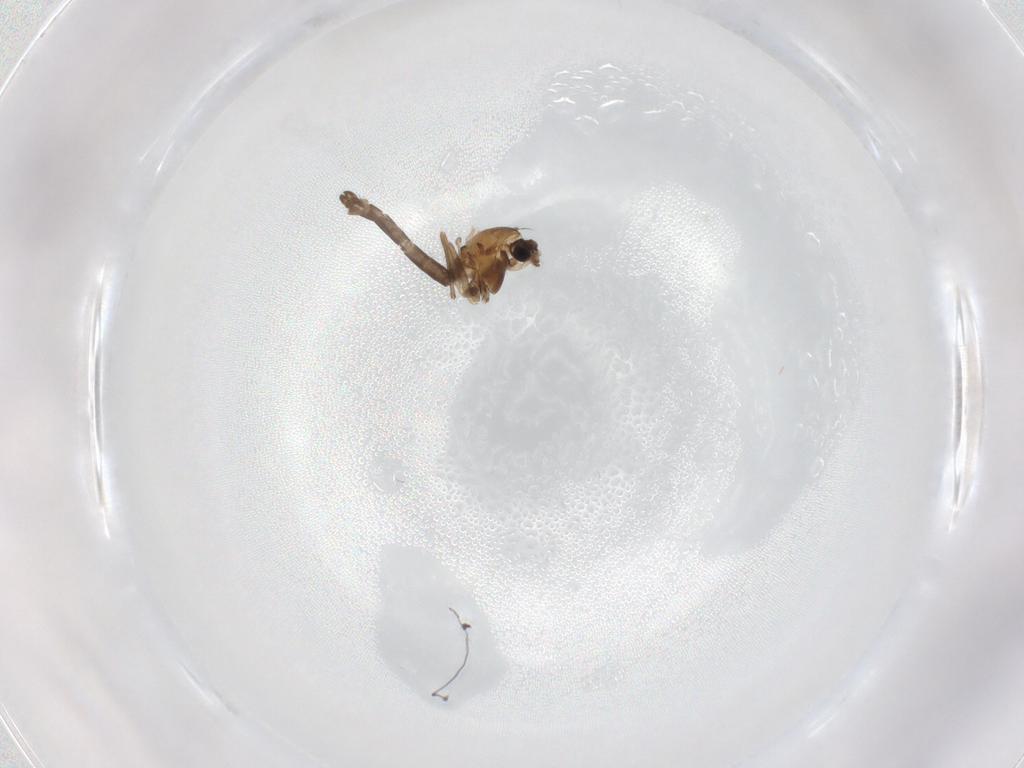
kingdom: Animalia
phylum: Arthropoda
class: Insecta
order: Diptera
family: Chironomidae
